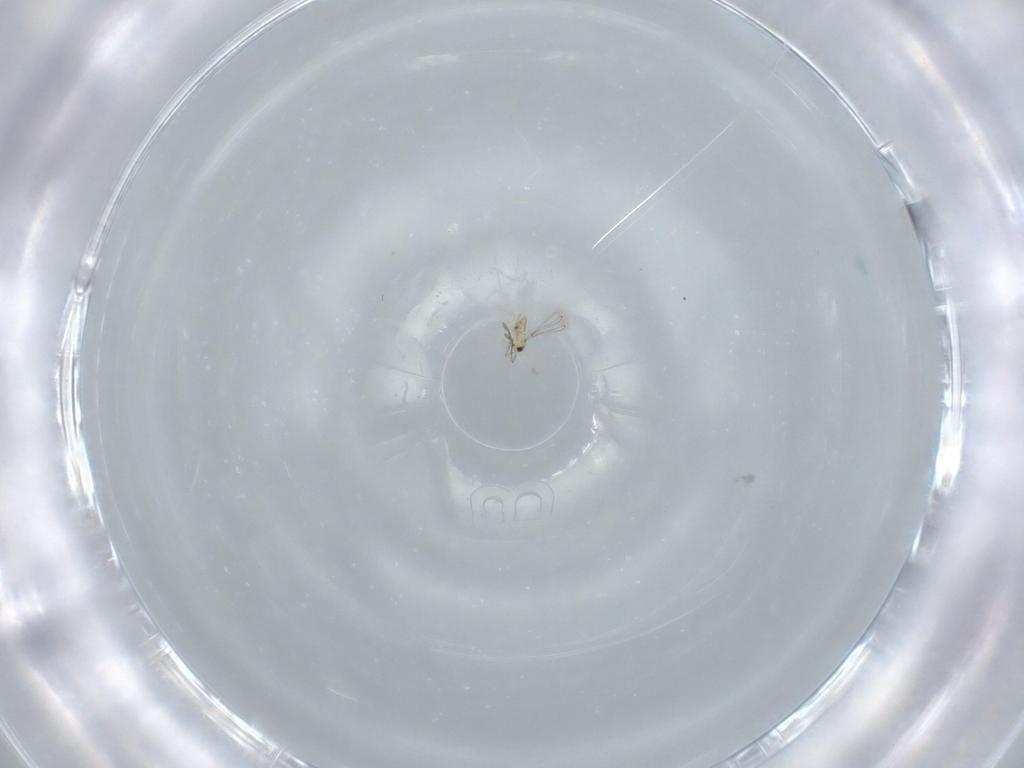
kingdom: Animalia
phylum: Arthropoda
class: Insecta
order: Hymenoptera
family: Mymaridae
